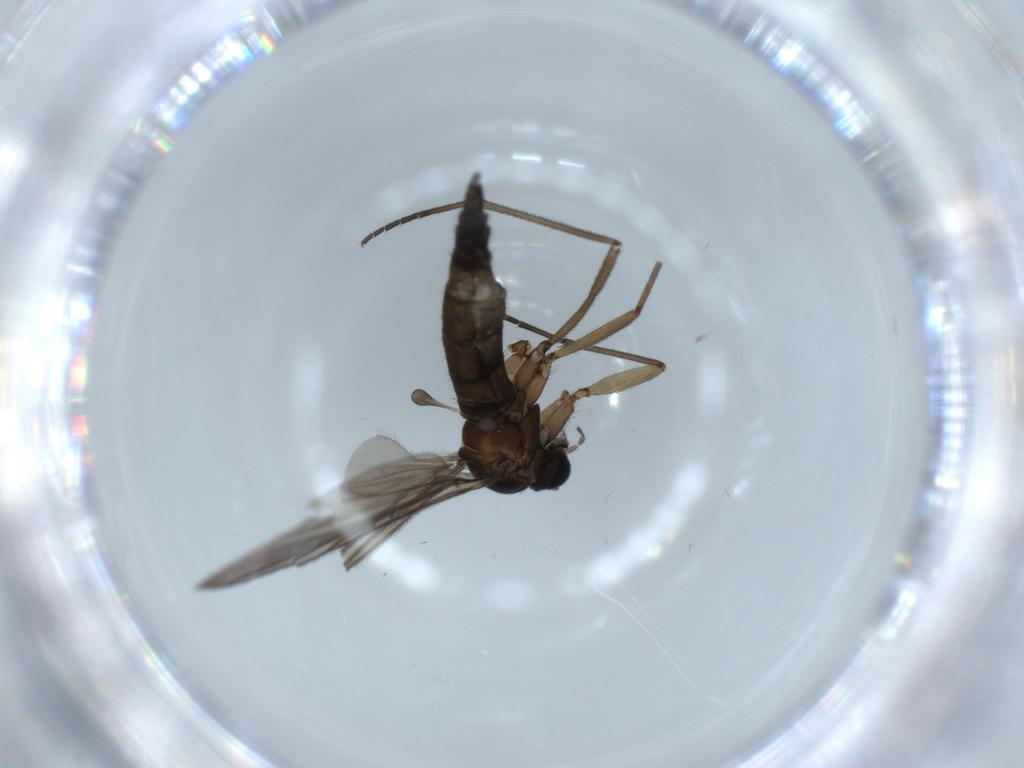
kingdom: Animalia
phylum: Arthropoda
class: Insecta
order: Diptera
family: Sciaridae
